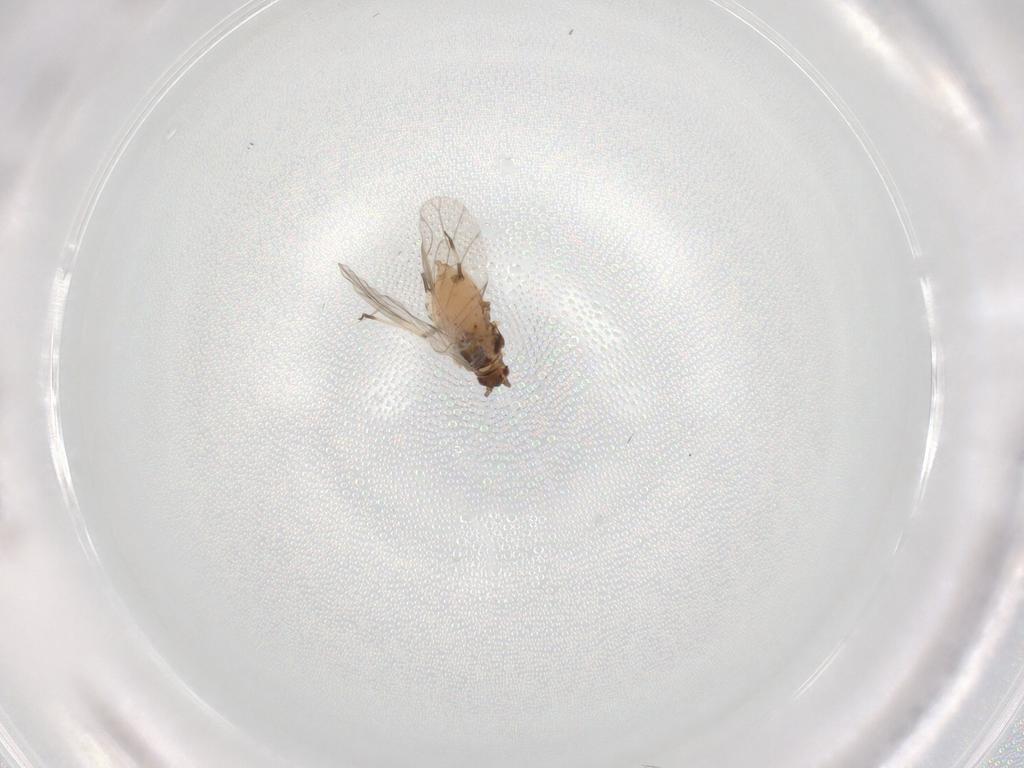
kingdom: Animalia
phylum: Arthropoda
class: Insecta
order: Hemiptera
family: Aphididae
